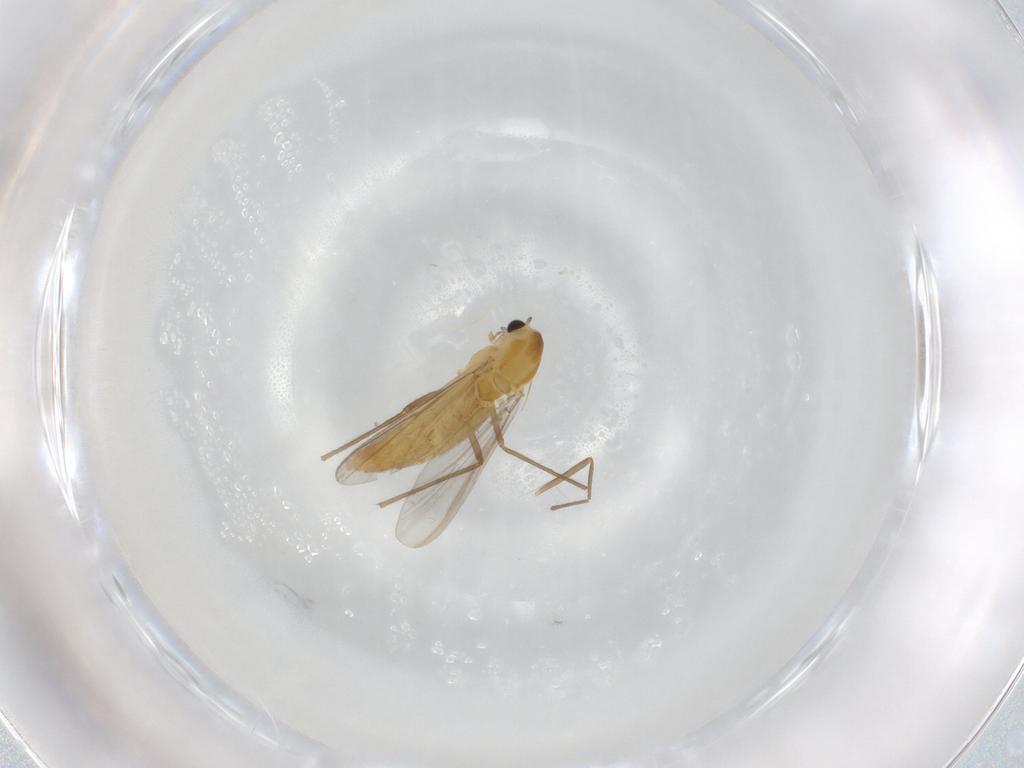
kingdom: Animalia
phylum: Arthropoda
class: Insecta
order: Diptera
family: Chironomidae
